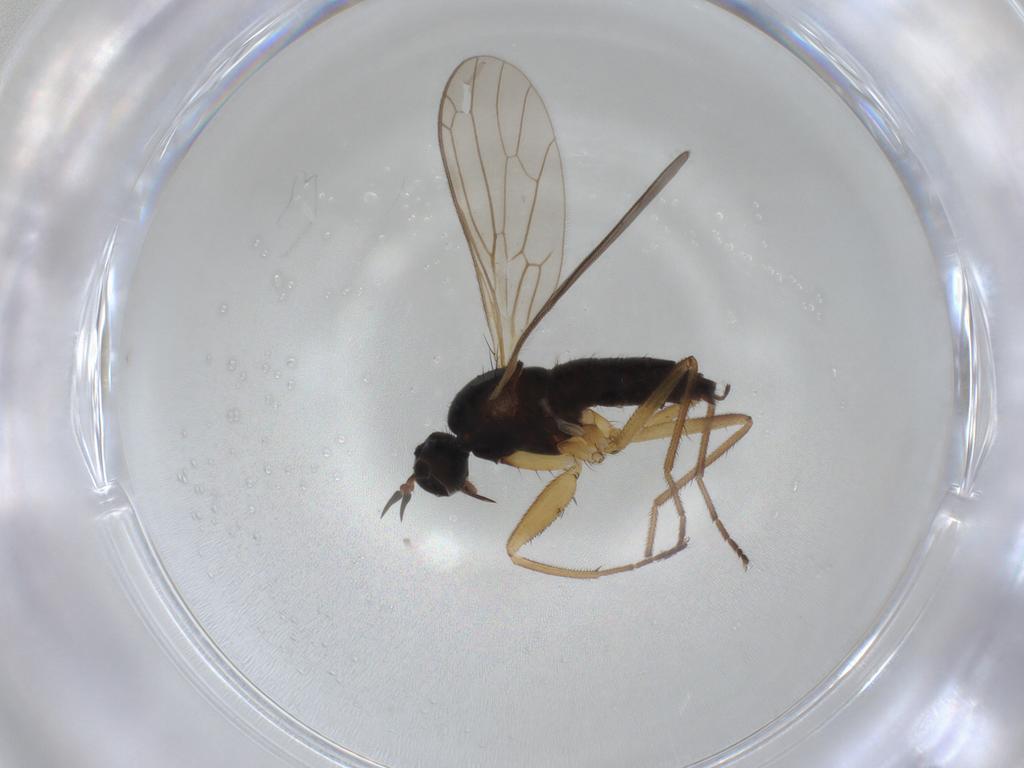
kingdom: Animalia
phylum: Arthropoda
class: Insecta
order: Diptera
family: Empididae
